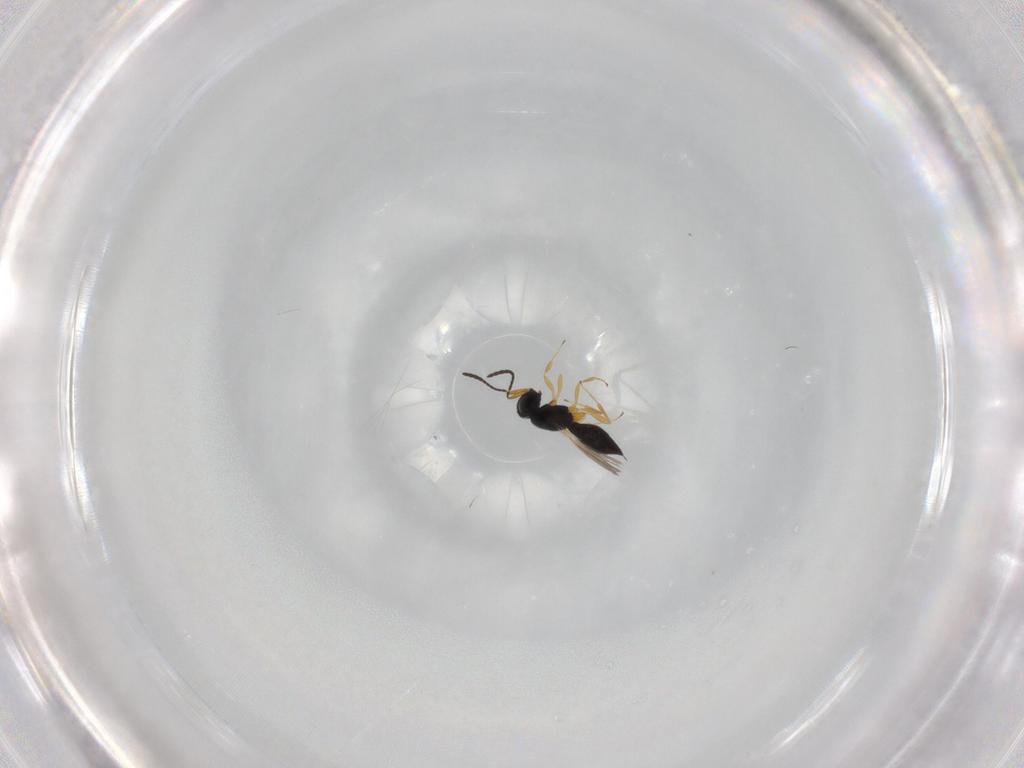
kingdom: Animalia
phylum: Arthropoda
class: Insecta
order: Hymenoptera
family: Scelionidae
